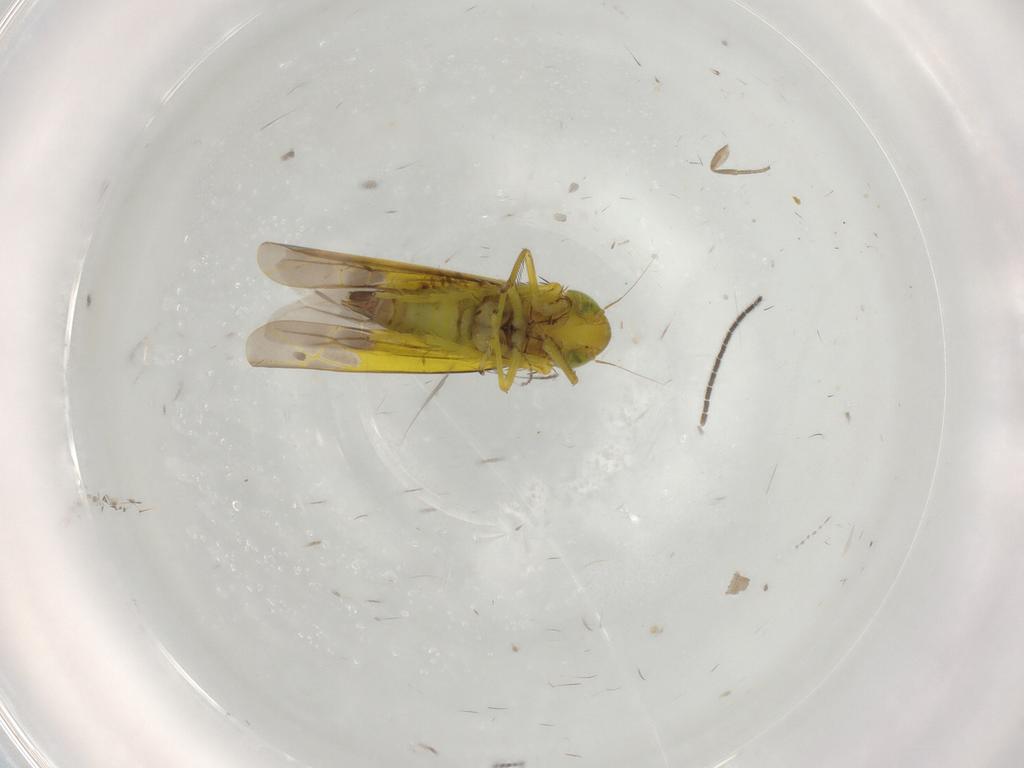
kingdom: Animalia
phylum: Arthropoda
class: Insecta
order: Hemiptera
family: Cicadellidae
